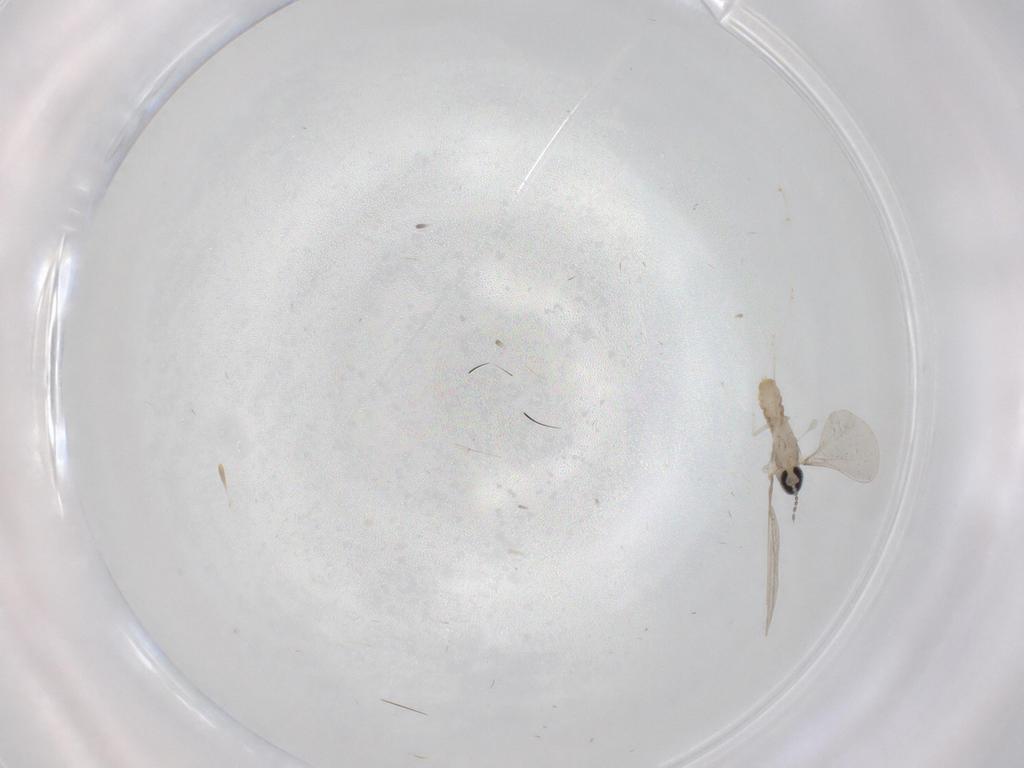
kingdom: Animalia
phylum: Arthropoda
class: Insecta
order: Diptera
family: Cecidomyiidae
